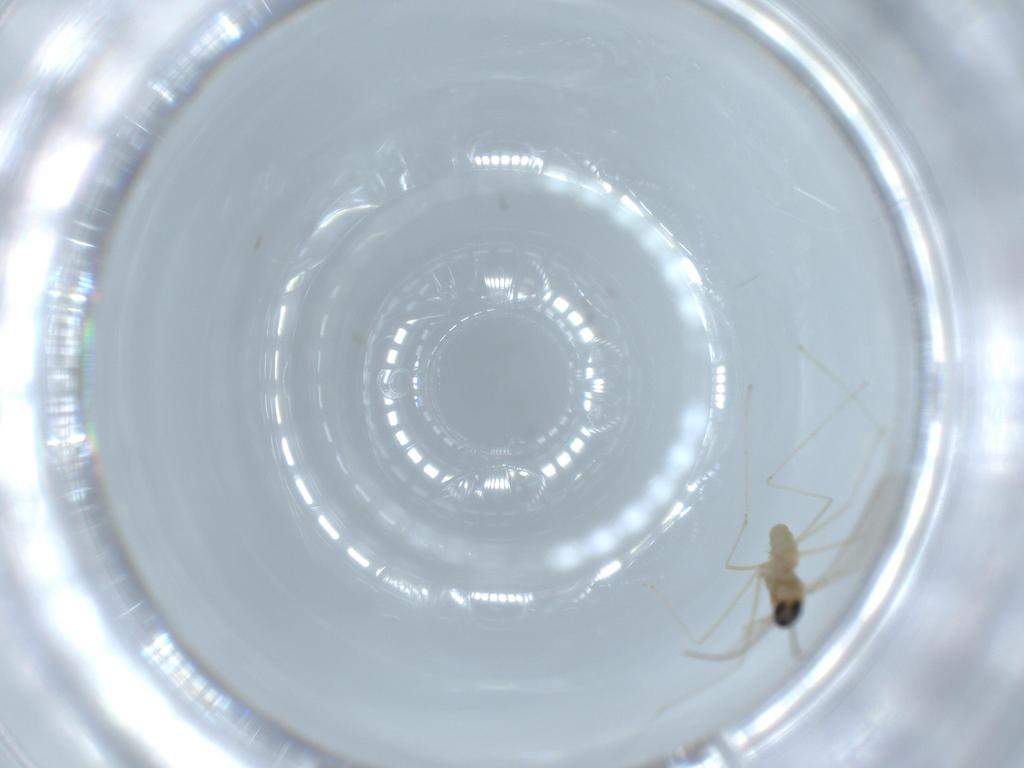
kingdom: Animalia
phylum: Arthropoda
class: Insecta
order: Diptera
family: Cecidomyiidae
